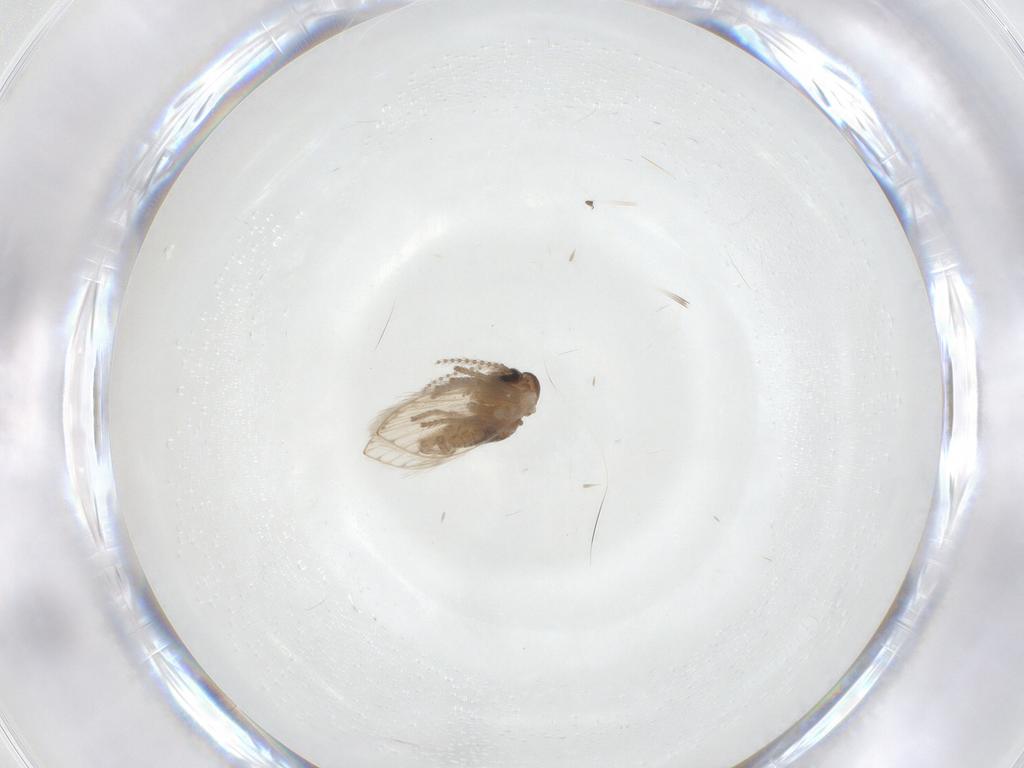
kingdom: Animalia
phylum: Arthropoda
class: Insecta
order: Diptera
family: Psychodidae
